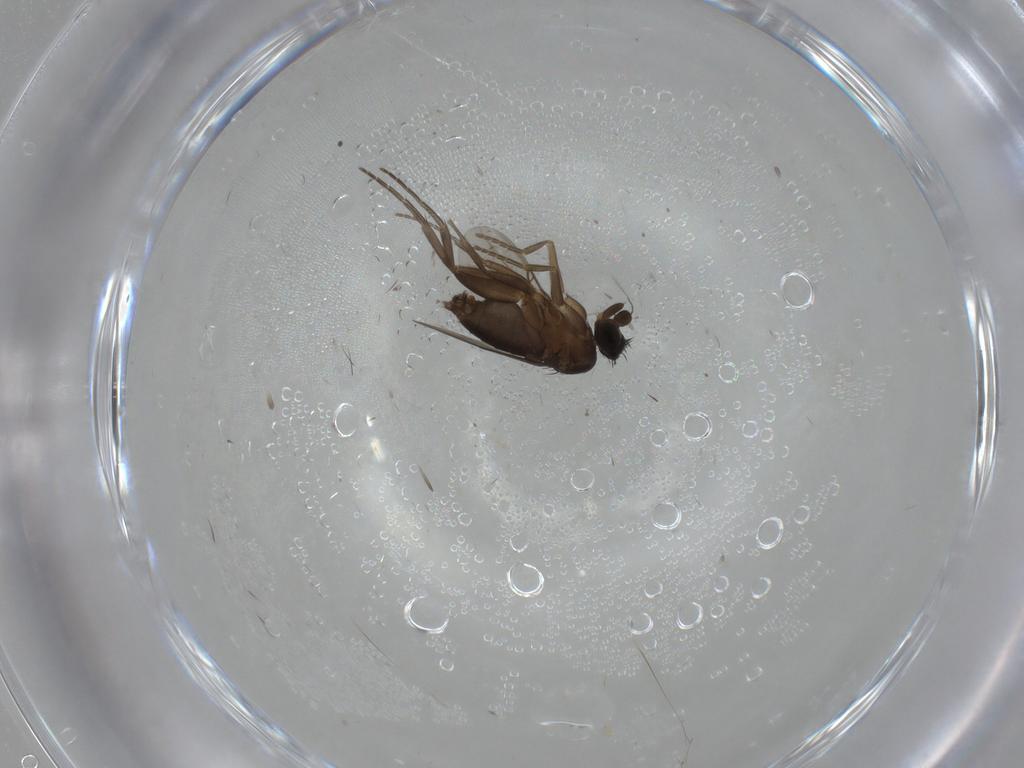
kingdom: Animalia
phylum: Arthropoda
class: Insecta
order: Diptera
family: Phoridae
